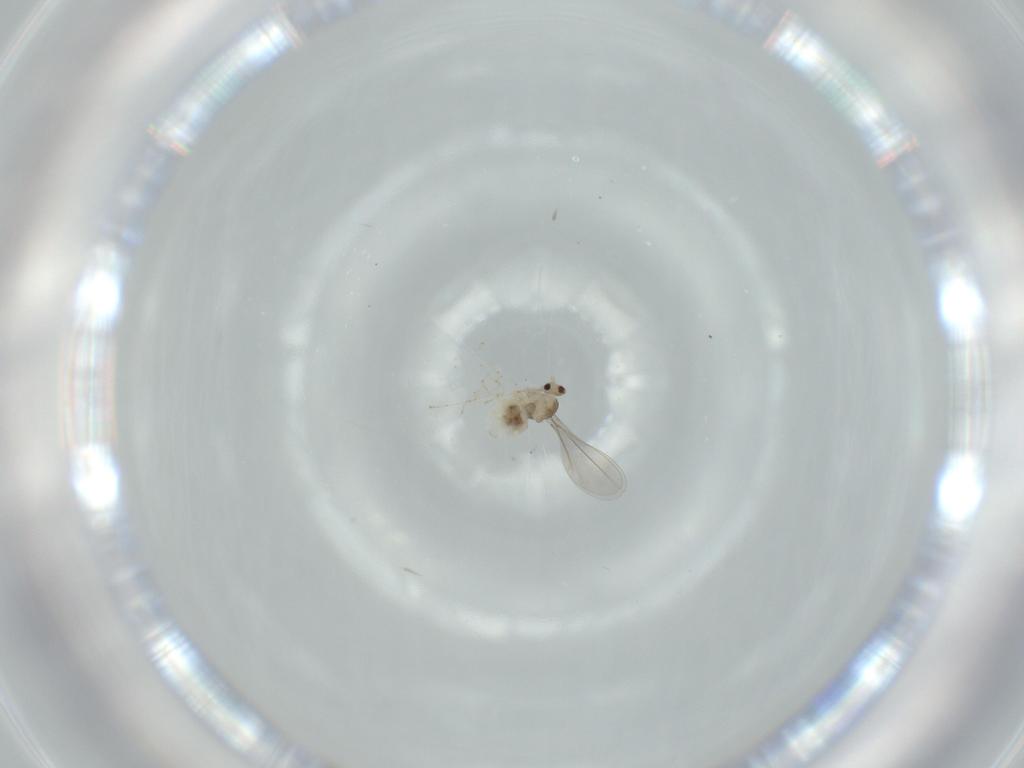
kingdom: Animalia
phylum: Arthropoda
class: Insecta
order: Diptera
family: Cecidomyiidae
